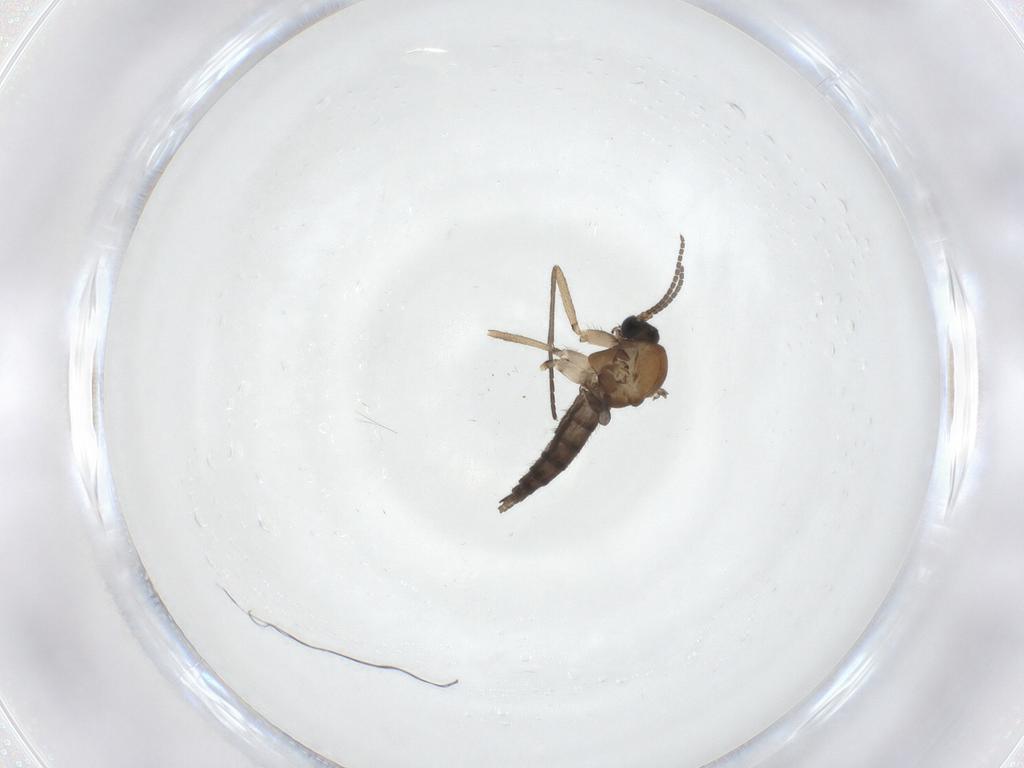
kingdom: Animalia
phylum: Arthropoda
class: Insecta
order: Diptera
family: Sciaridae
